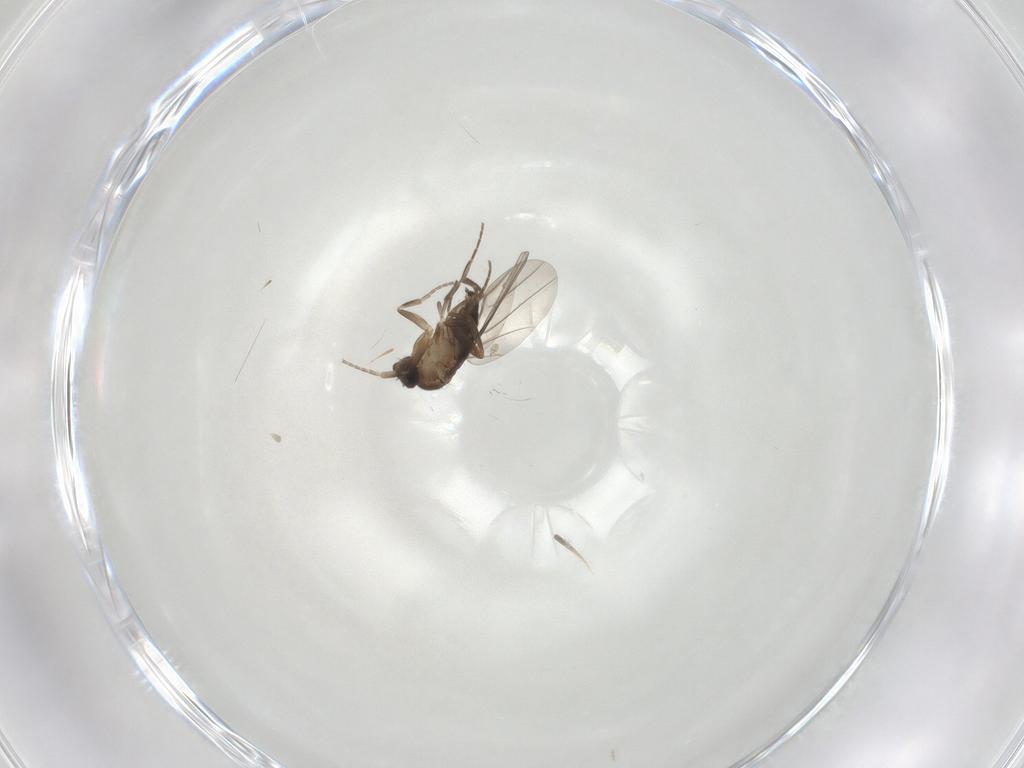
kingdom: Animalia
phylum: Arthropoda
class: Insecta
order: Diptera
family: Mycetophilidae
